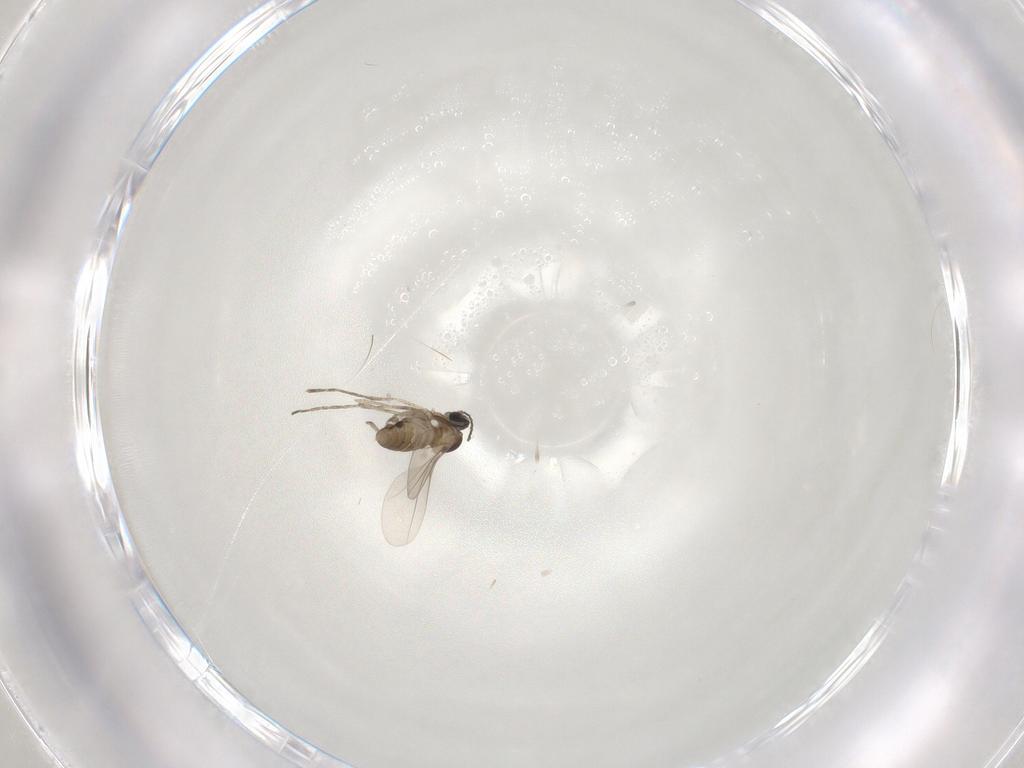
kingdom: Animalia
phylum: Arthropoda
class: Insecta
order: Diptera
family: Cecidomyiidae
